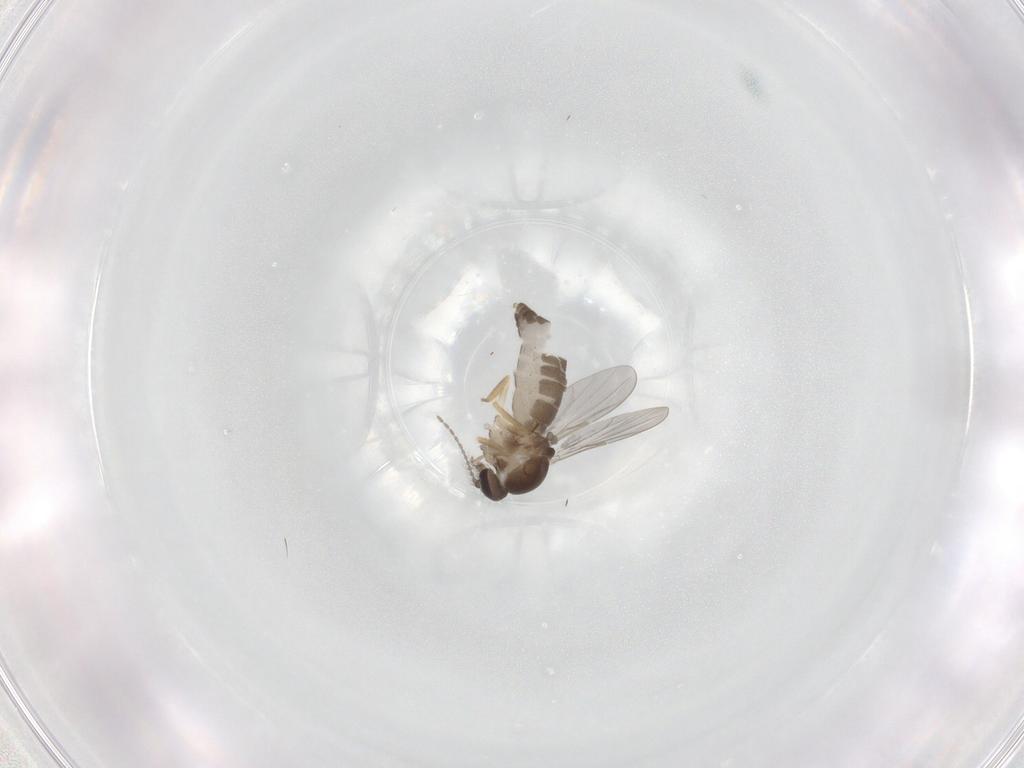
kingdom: Animalia
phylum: Arthropoda
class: Insecta
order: Diptera
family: Ceratopogonidae
